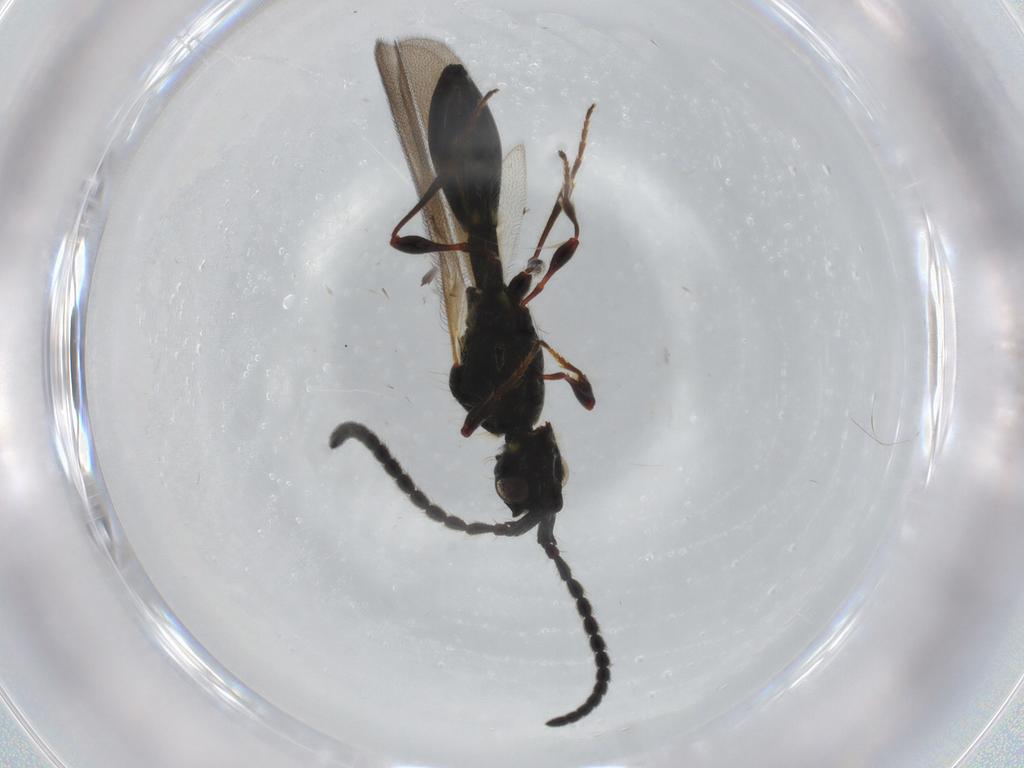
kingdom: Animalia
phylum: Arthropoda
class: Insecta
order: Hymenoptera
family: Diapriidae
